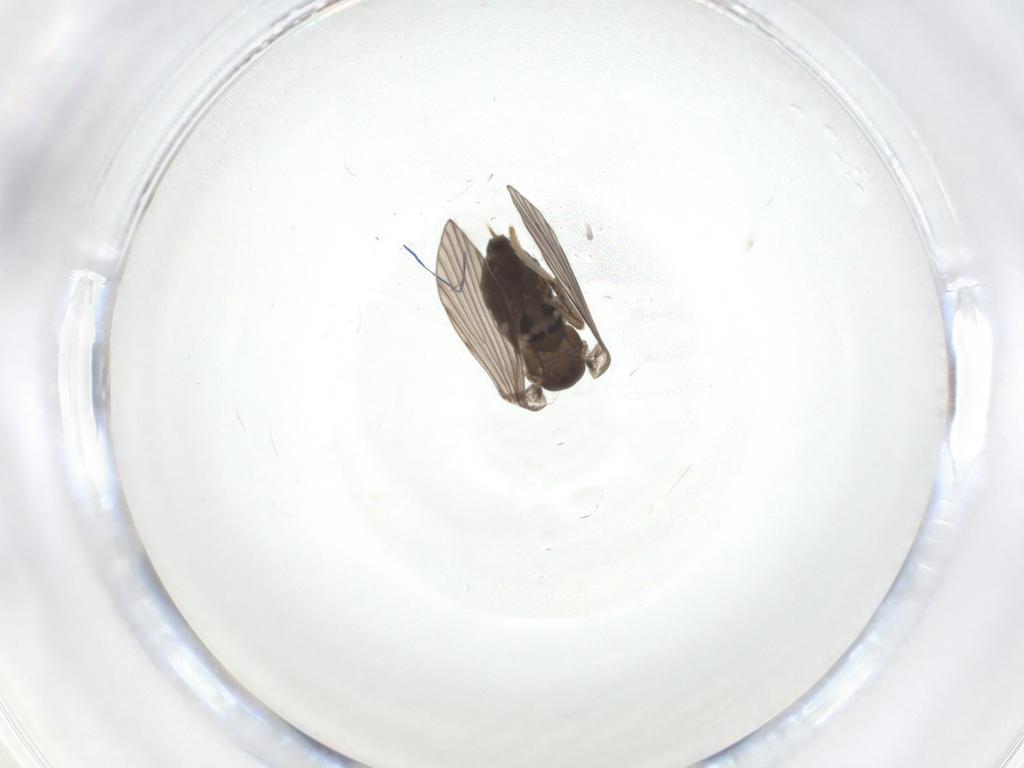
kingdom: Animalia
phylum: Arthropoda
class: Insecta
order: Diptera
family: Psychodidae
